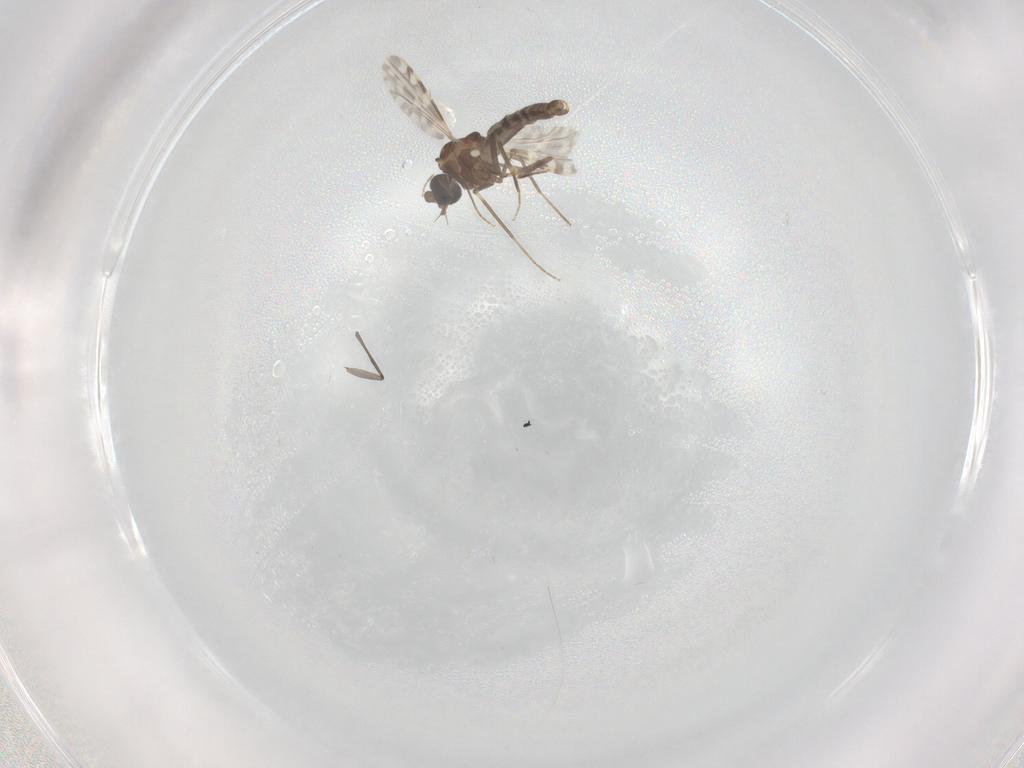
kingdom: Animalia
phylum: Arthropoda
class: Insecta
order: Diptera
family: Ceratopogonidae
